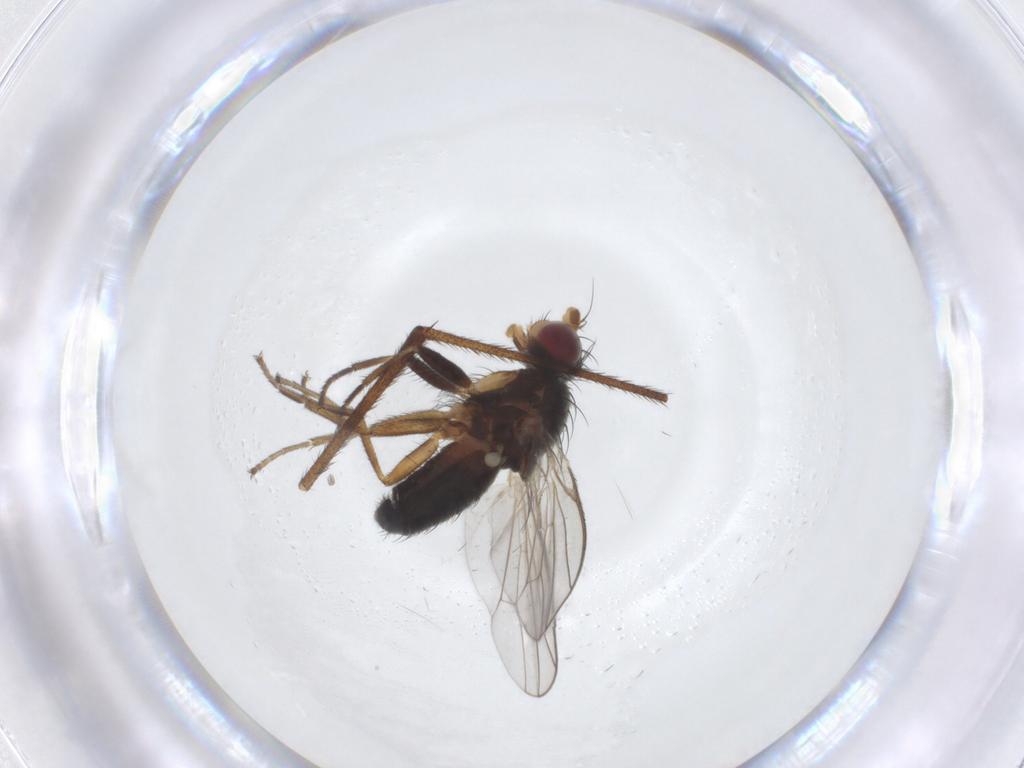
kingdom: Animalia
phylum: Arthropoda
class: Insecta
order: Diptera
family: Heleomyzidae
